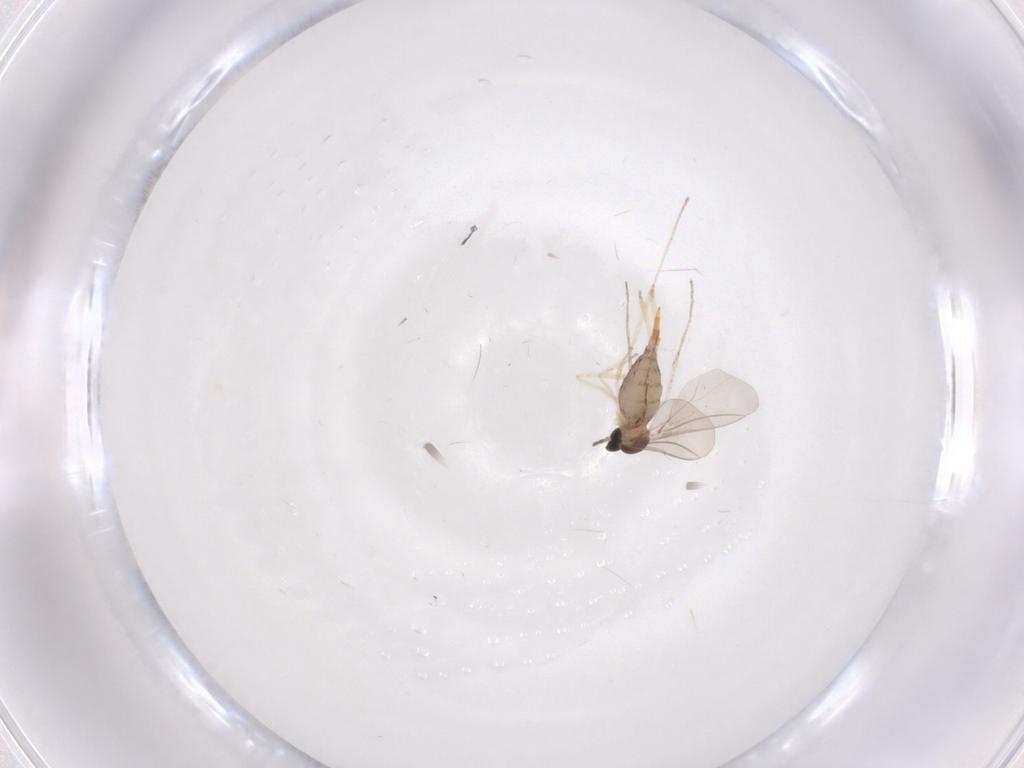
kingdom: Animalia
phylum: Arthropoda
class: Insecta
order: Diptera
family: Cecidomyiidae
